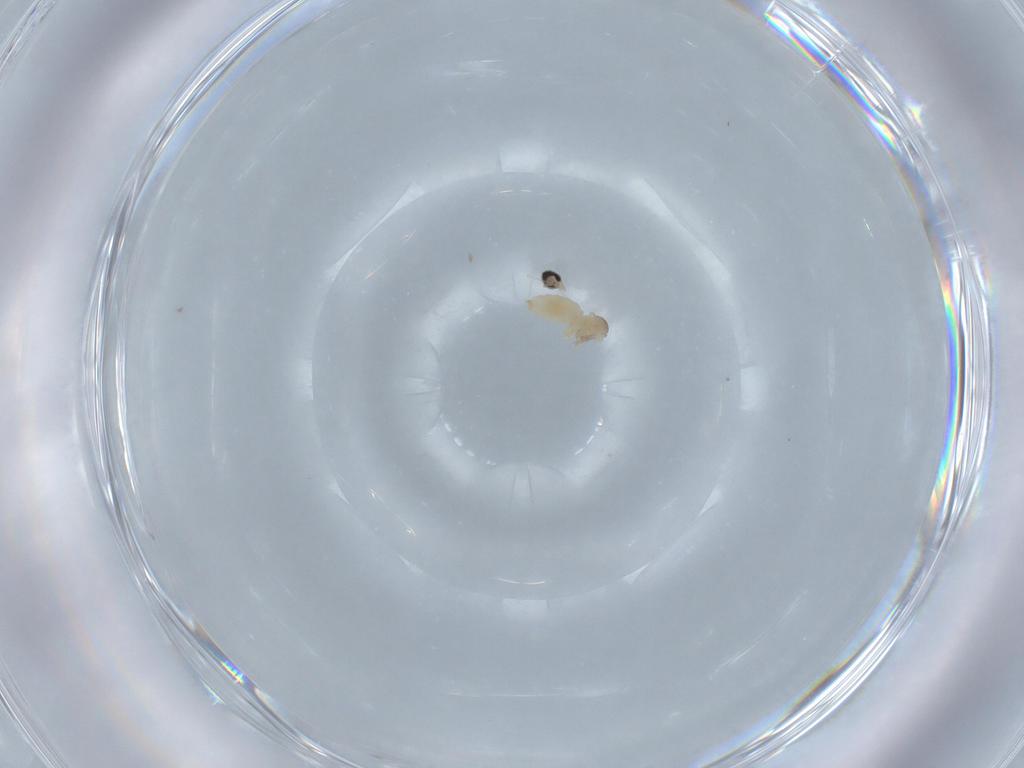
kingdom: Animalia
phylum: Arthropoda
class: Insecta
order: Diptera
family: Cecidomyiidae
